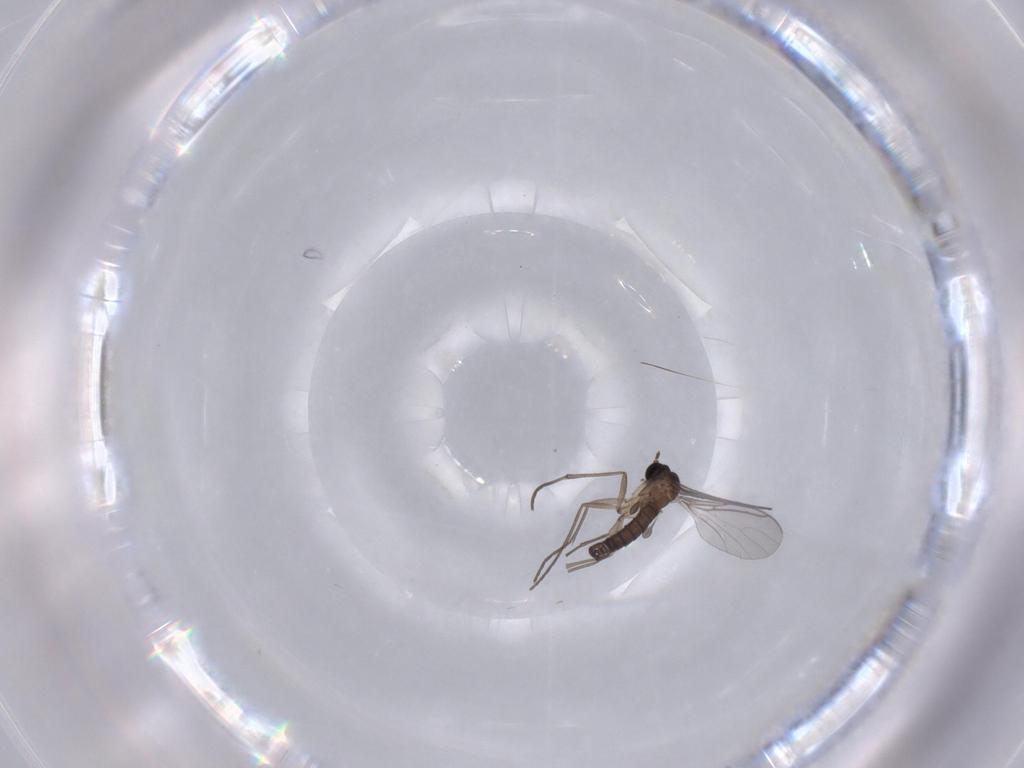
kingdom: Animalia
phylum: Arthropoda
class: Insecta
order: Diptera
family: Sciaridae
